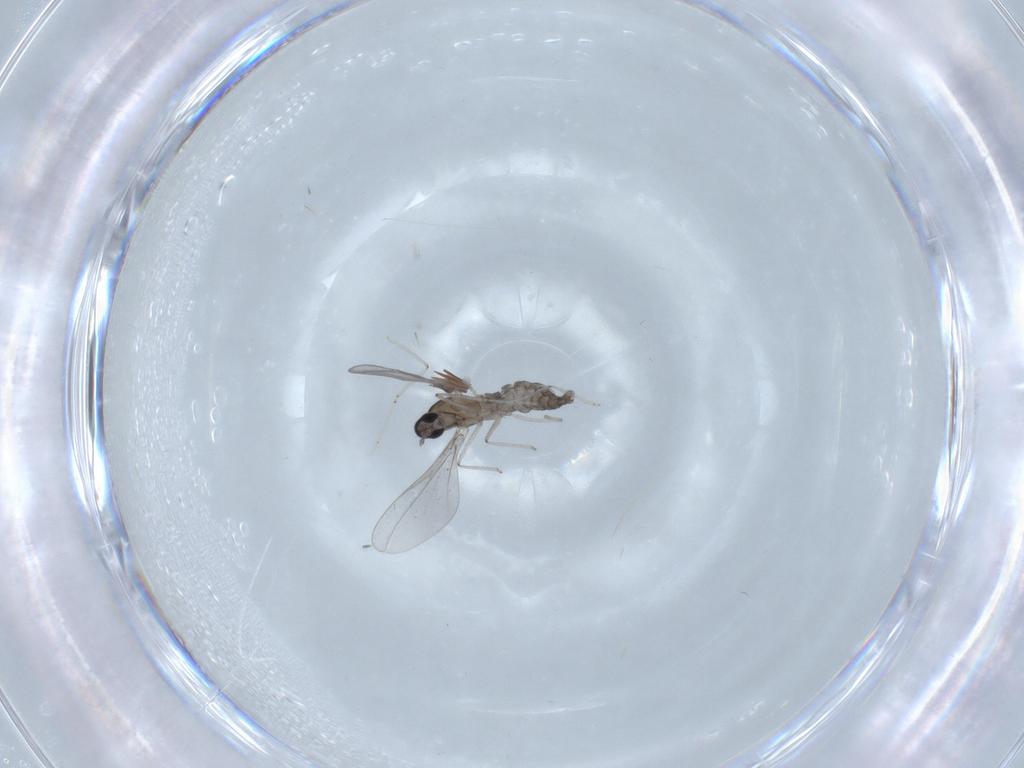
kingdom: Animalia
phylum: Arthropoda
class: Insecta
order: Diptera
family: Cecidomyiidae
